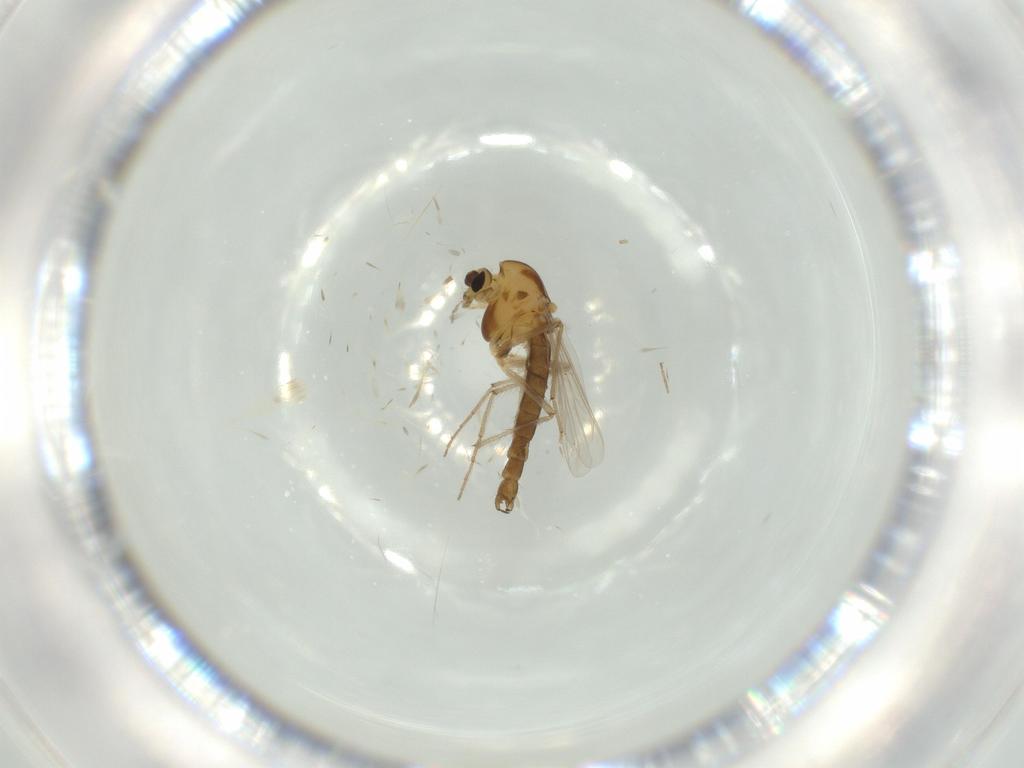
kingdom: Animalia
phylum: Arthropoda
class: Insecta
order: Diptera
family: Chironomidae
